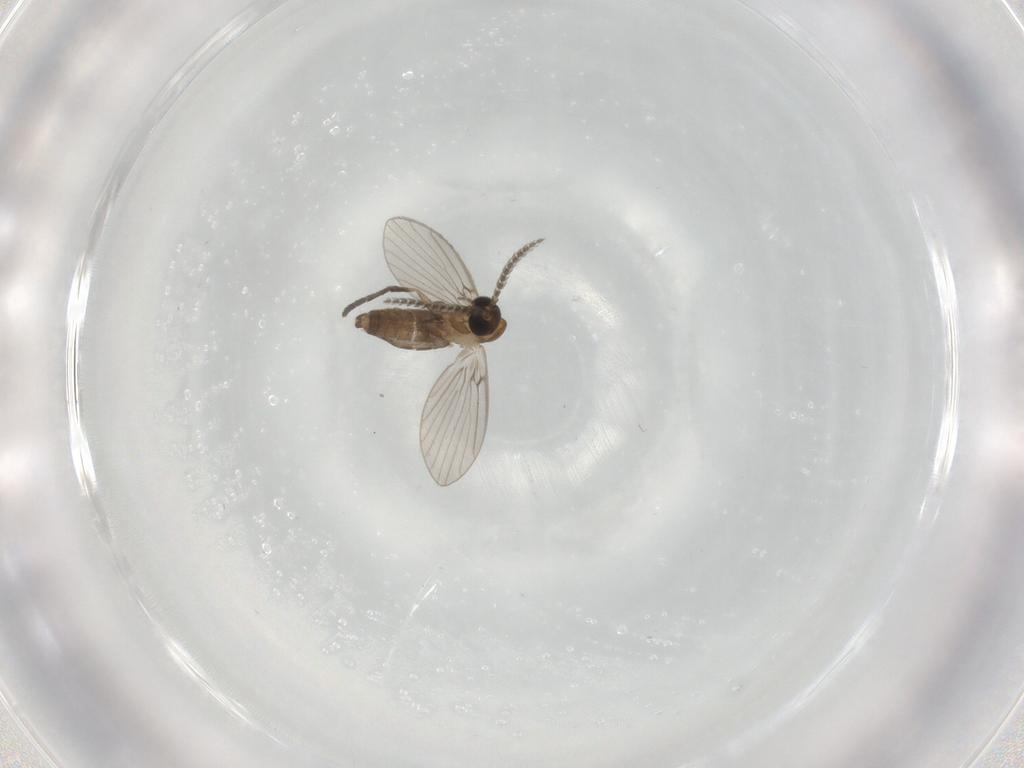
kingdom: Animalia
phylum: Arthropoda
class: Insecta
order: Diptera
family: Psychodidae
